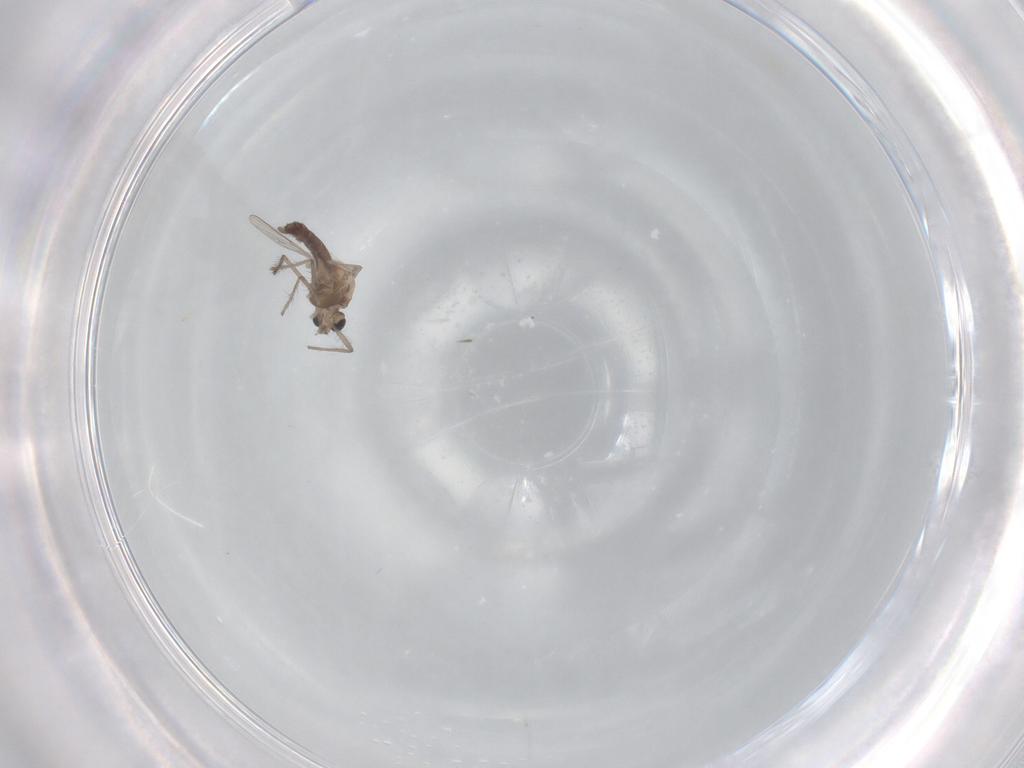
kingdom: Animalia
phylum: Arthropoda
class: Insecta
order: Diptera
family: Chironomidae
